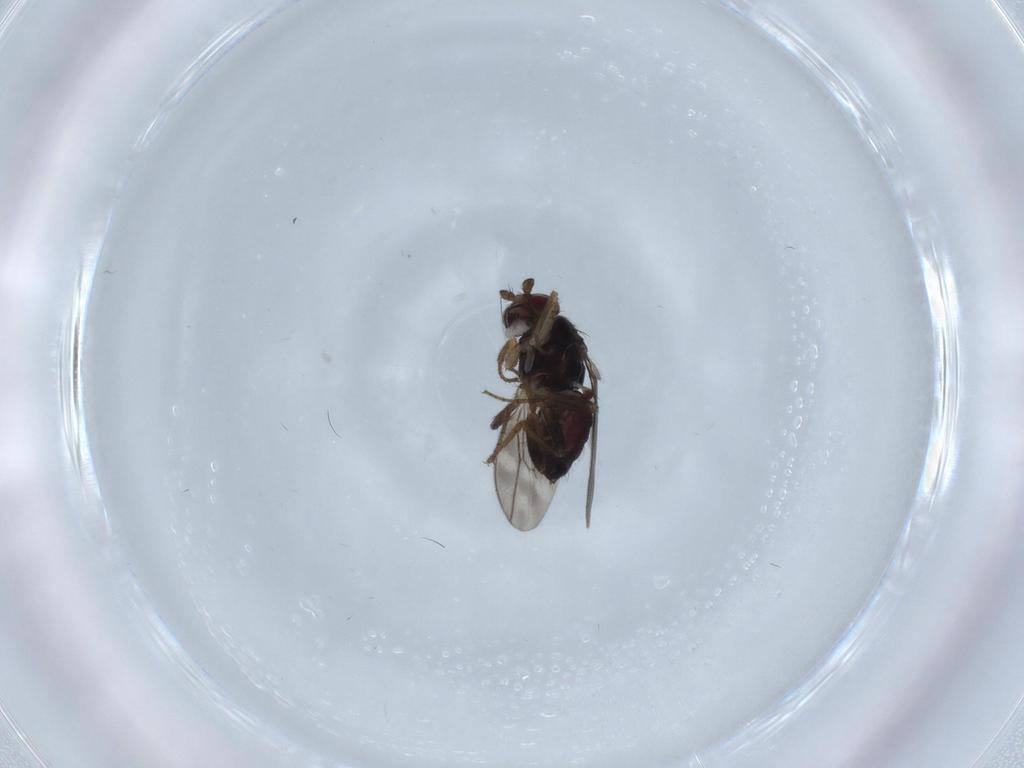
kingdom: Animalia
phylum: Arthropoda
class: Insecta
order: Diptera
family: Sphaeroceridae
